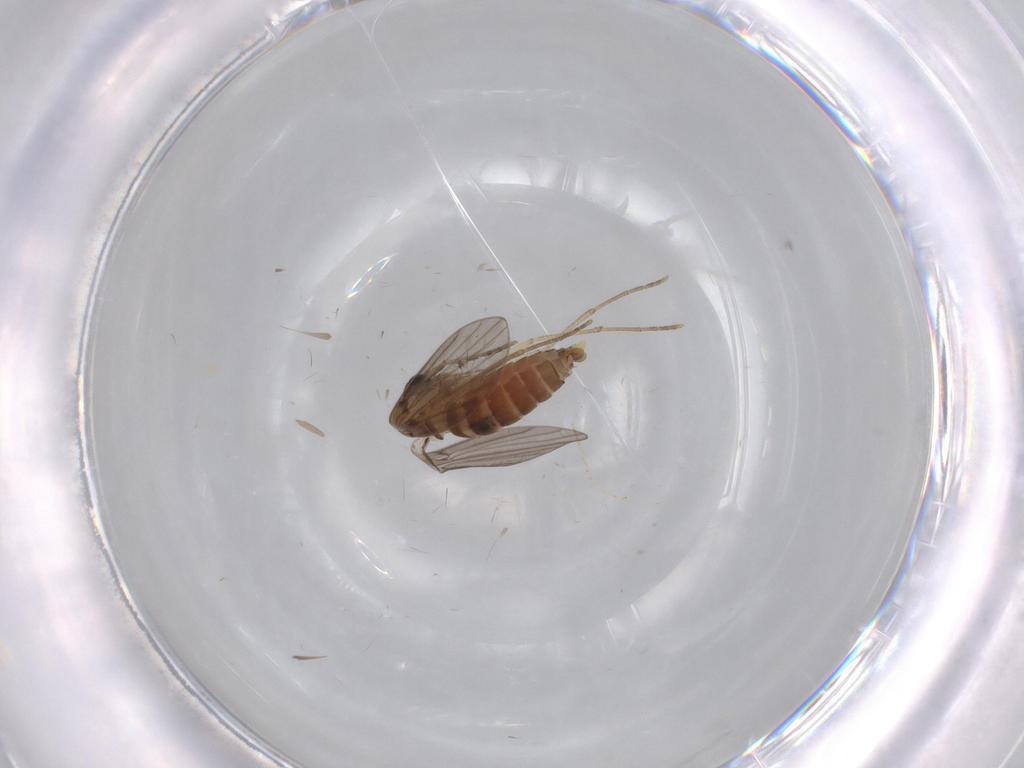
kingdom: Animalia
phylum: Arthropoda
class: Insecta
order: Diptera
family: Cecidomyiidae
